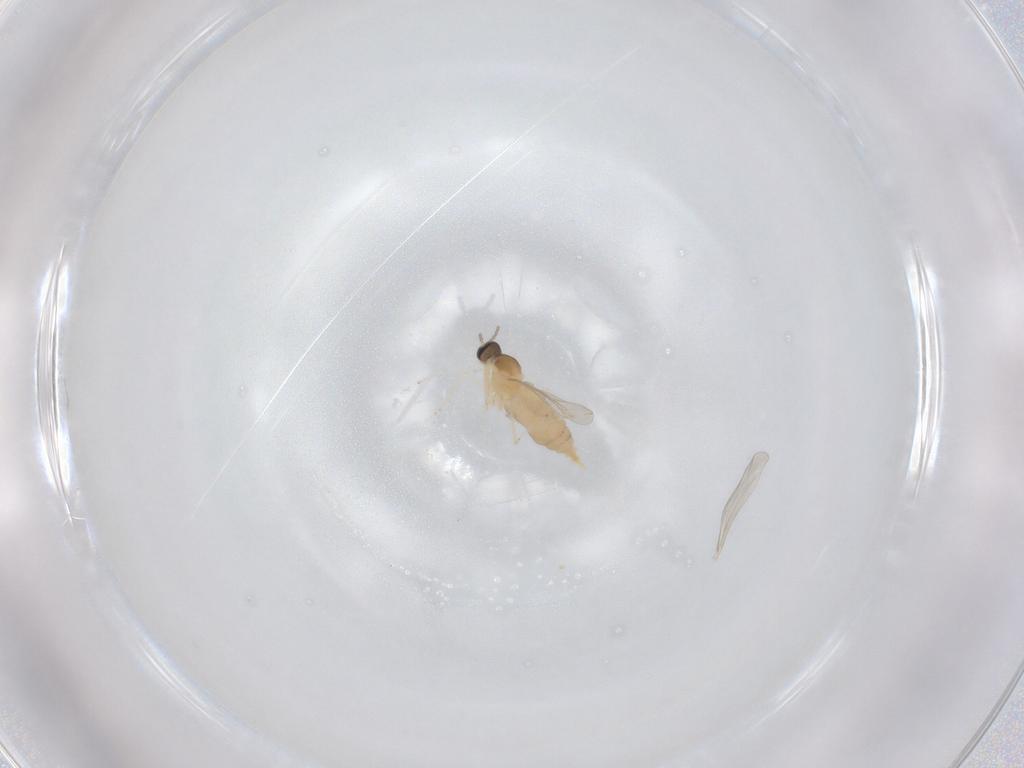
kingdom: Animalia
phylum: Arthropoda
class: Insecta
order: Diptera
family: Cecidomyiidae
